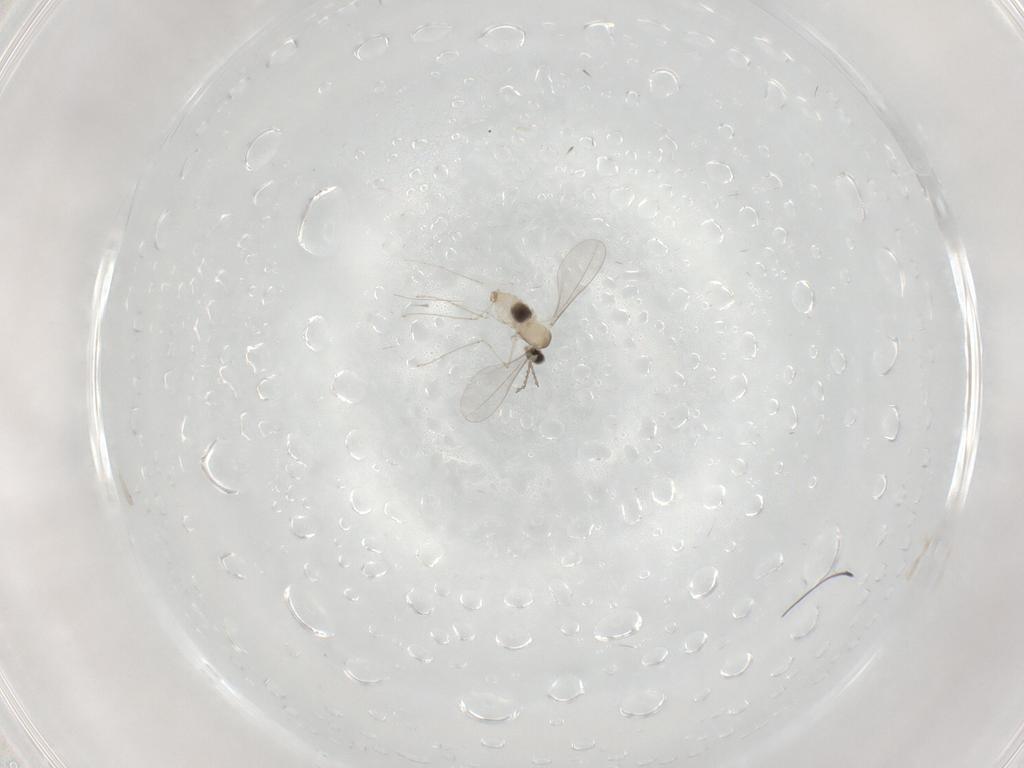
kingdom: Animalia
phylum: Arthropoda
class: Insecta
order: Diptera
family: Cecidomyiidae
